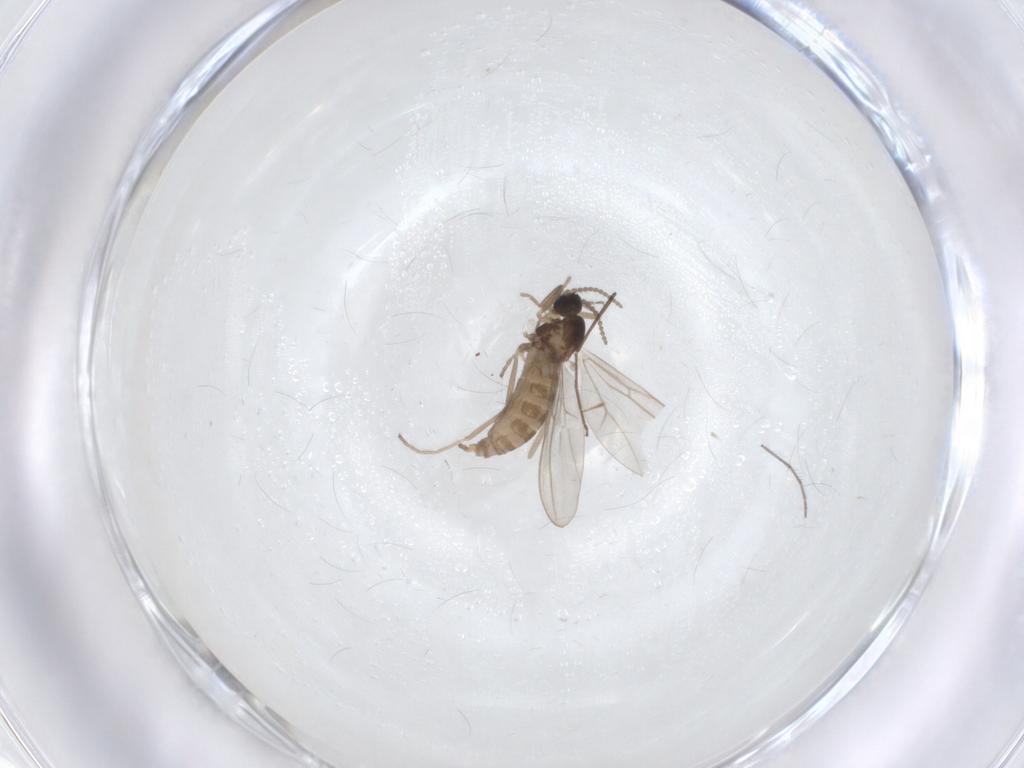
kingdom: Animalia
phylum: Arthropoda
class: Insecta
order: Diptera
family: Cecidomyiidae
